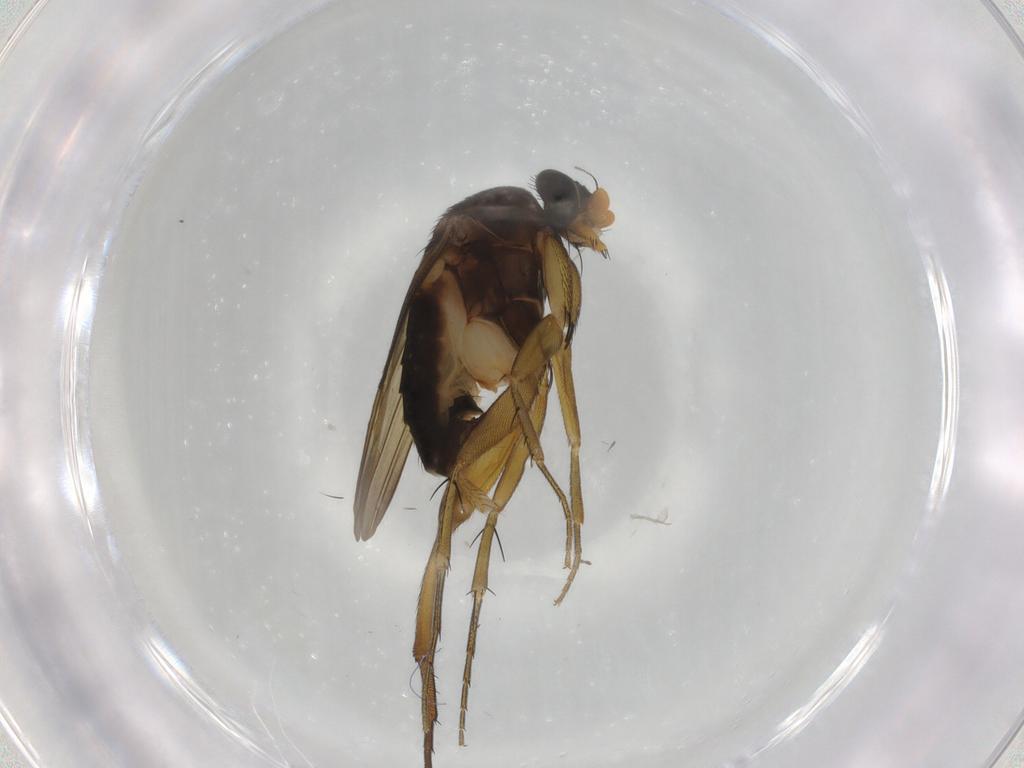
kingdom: Animalia
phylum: Arthropoda
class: Insecta
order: Diptera
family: Phoridae
